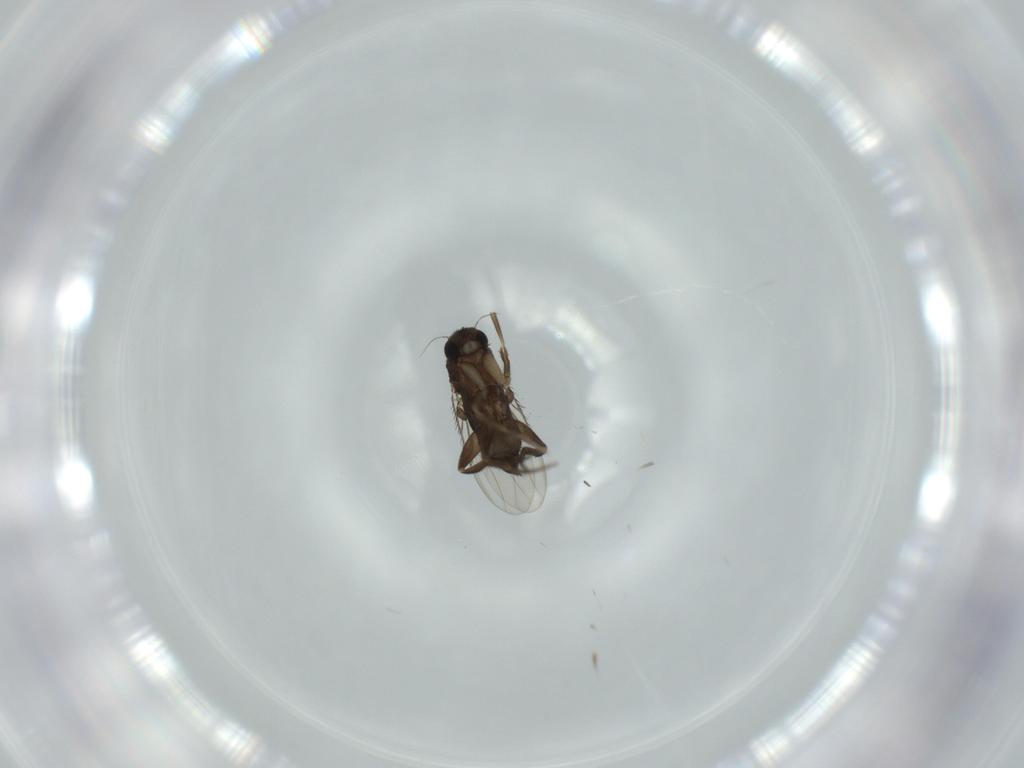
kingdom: Animalia
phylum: Arthropoda
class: Insecta
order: Diptera
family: Phoridae
